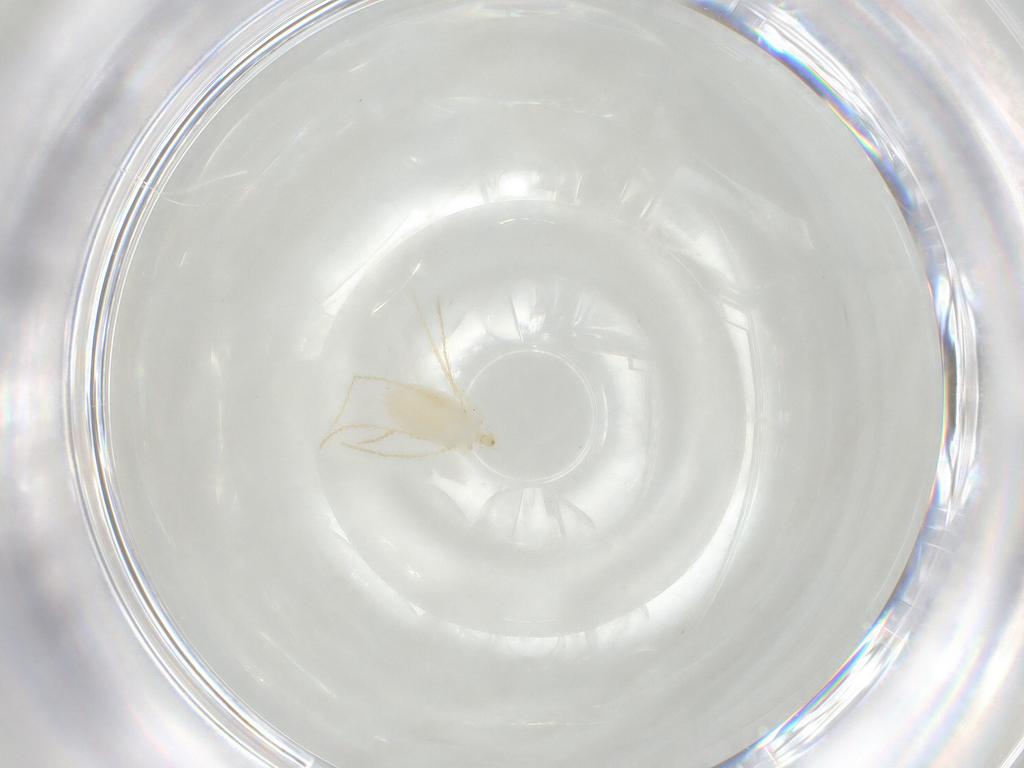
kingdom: Animalia
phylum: Arthropoda
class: Arachnida
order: Trombidiformes
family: Erythraeidae
